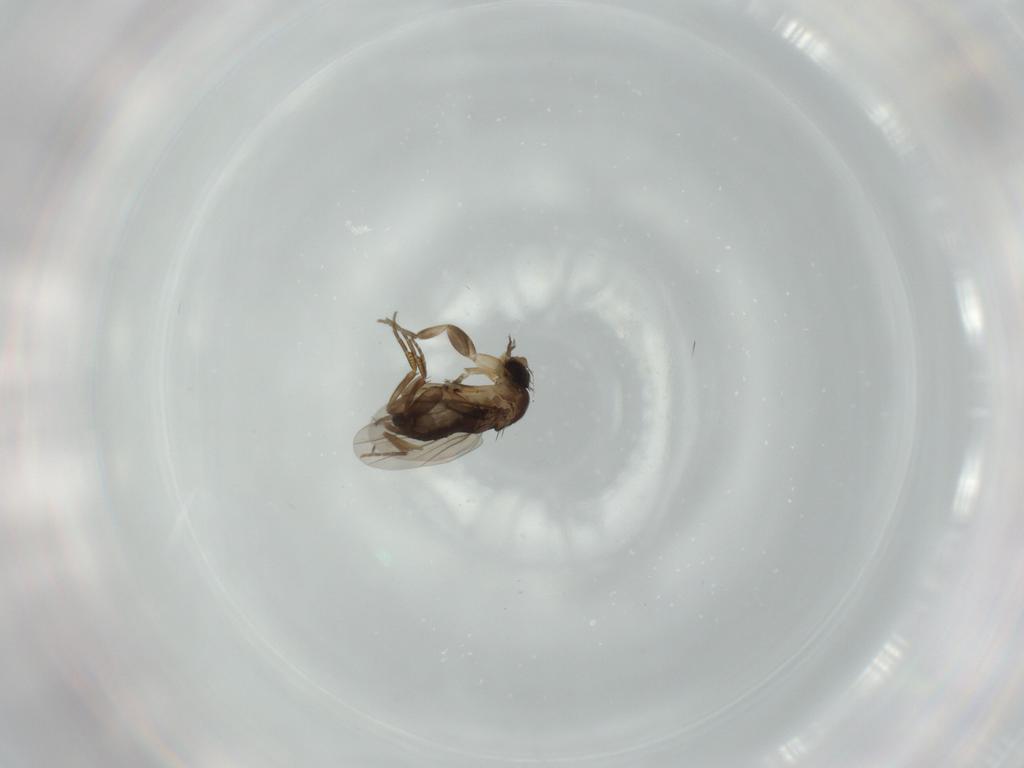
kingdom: Animalia
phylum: Arthropoda
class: Insecta
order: Diptera
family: Phoridae
